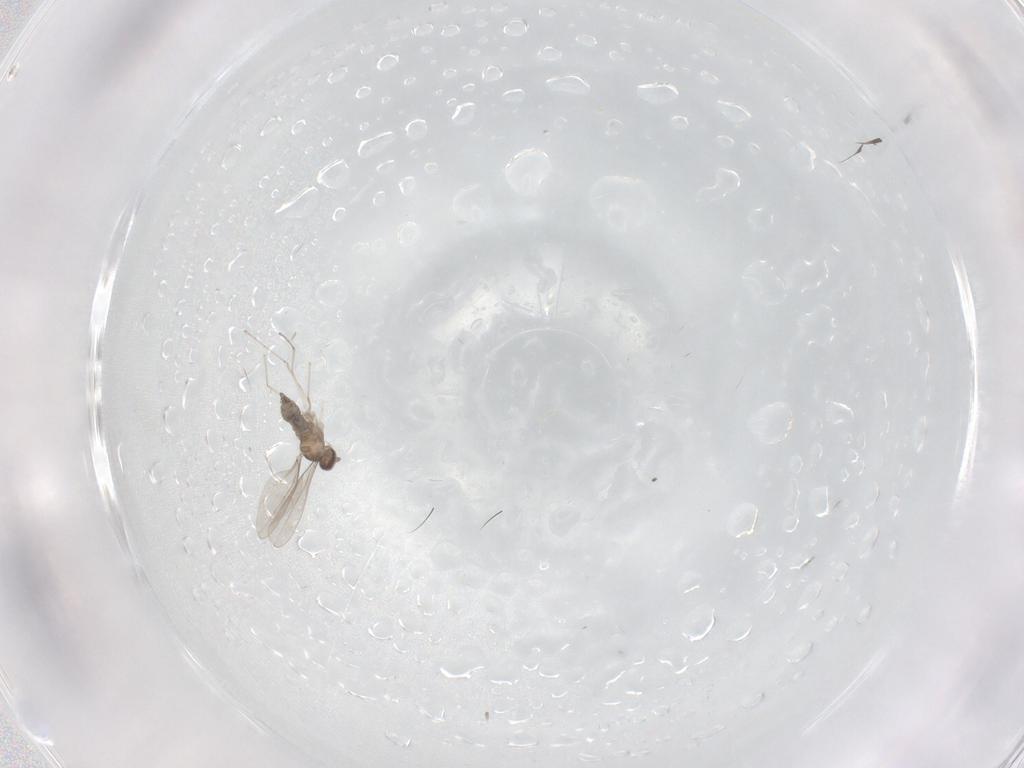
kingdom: Animalia
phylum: Arthropoda
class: Insecta
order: Diptera
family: Cecidomyiidae
